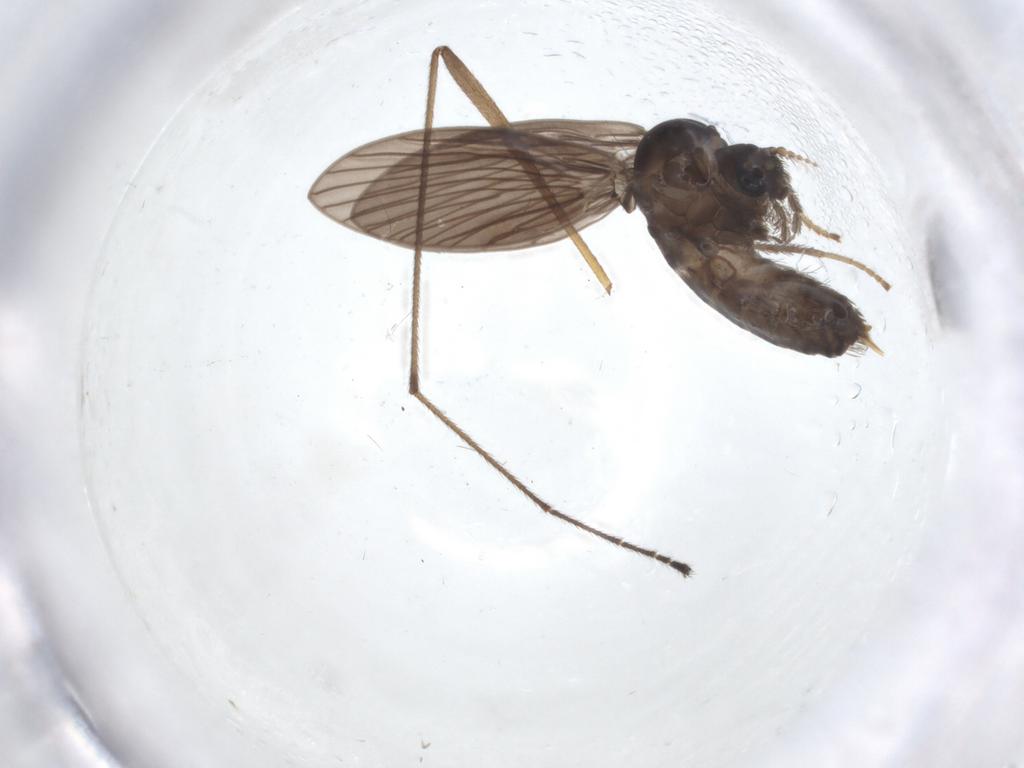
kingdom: Animalia
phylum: Arthropoda
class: Insecta
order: Diptera
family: Psychodidae
